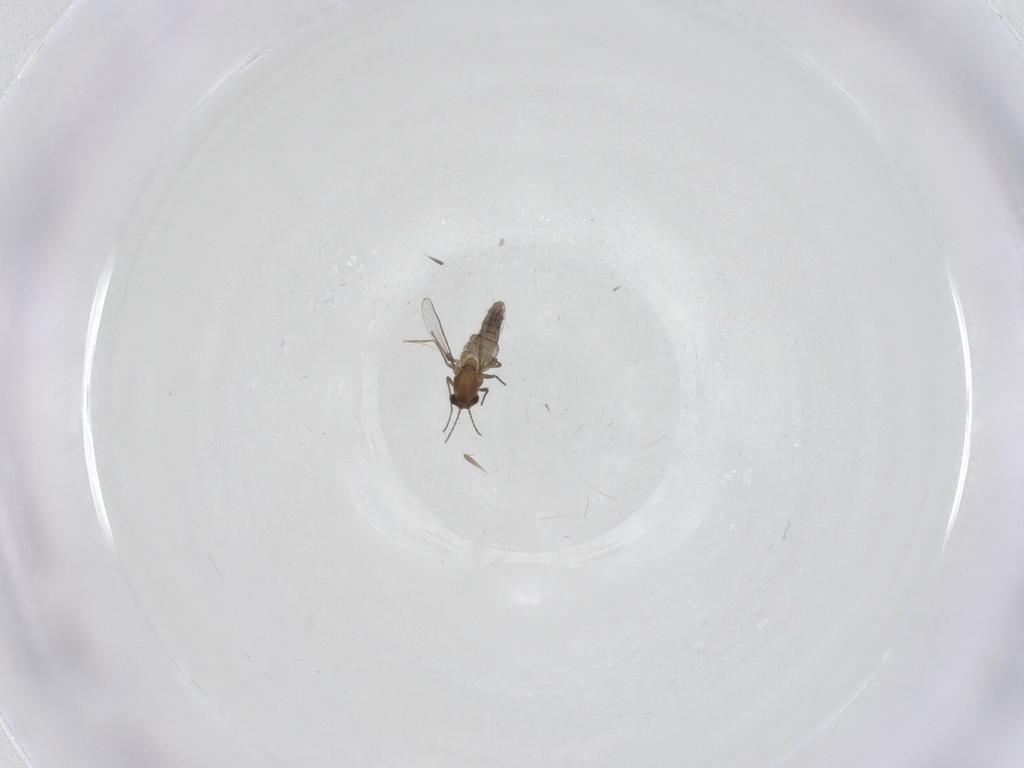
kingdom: Animalia
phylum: Arthropoda
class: Insecta
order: Diptera
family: Chironomidae
